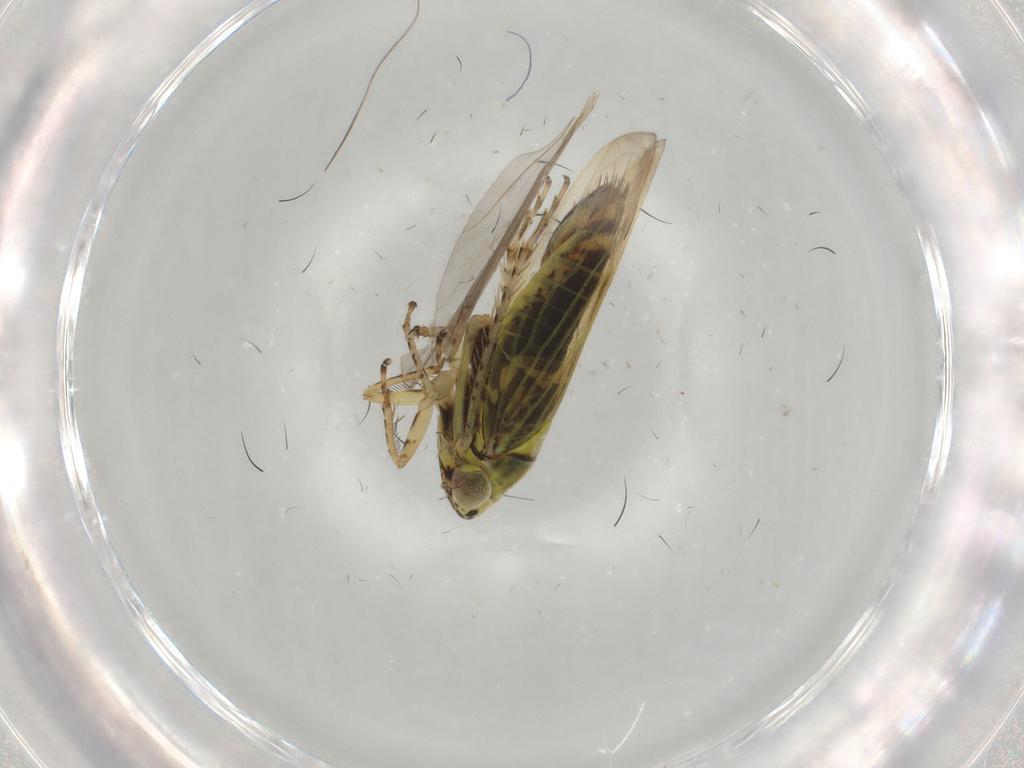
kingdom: Animalia
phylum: Arthropoda
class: Insecta
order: Hemiptera
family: Cicadellidae
